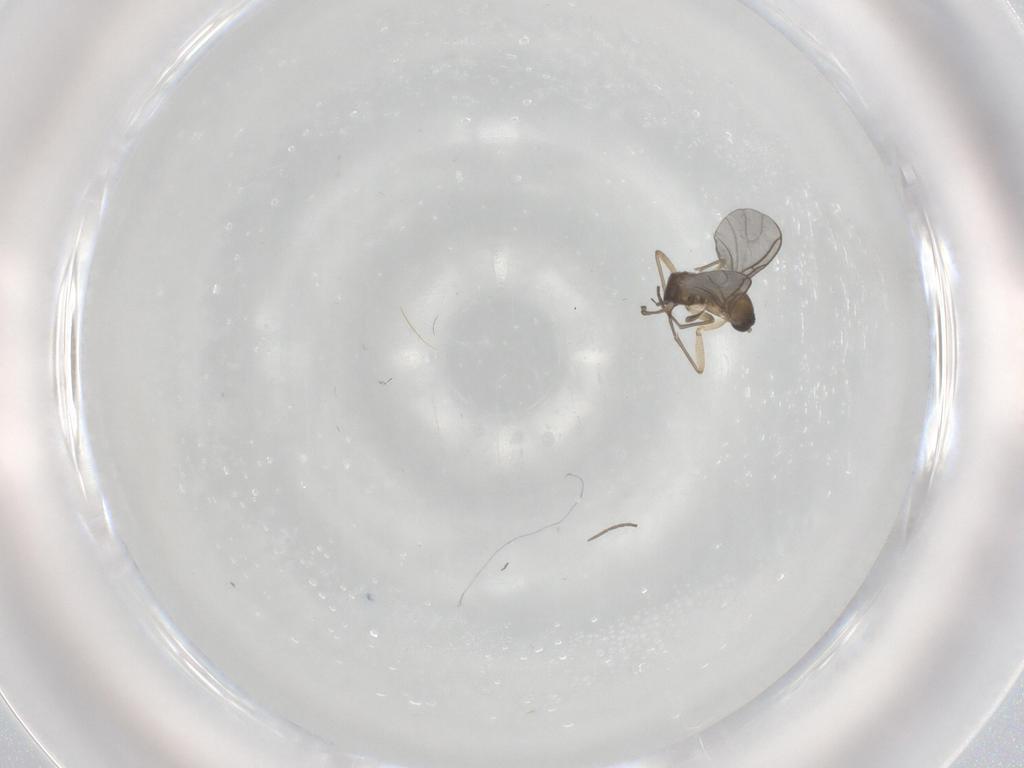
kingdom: Animalia
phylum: Arthropoda
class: Insecta
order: Diptera
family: Sciaridae
